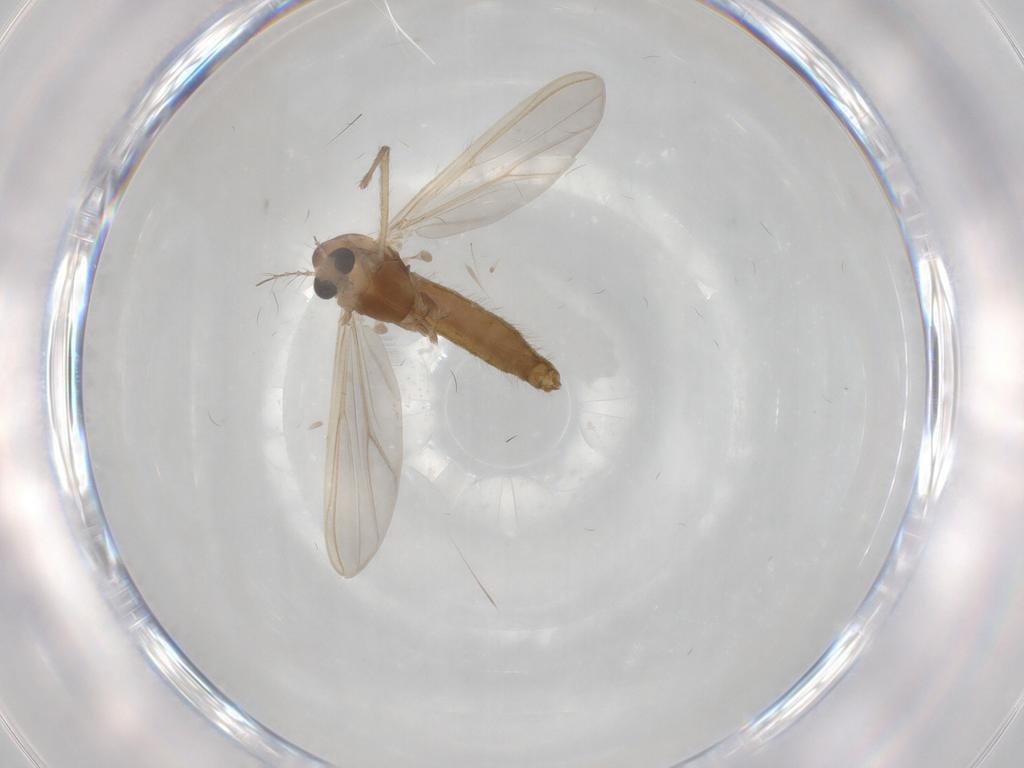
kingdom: Animalia
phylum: Arthropoda
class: Insecta
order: Diptera
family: Chironomidae
